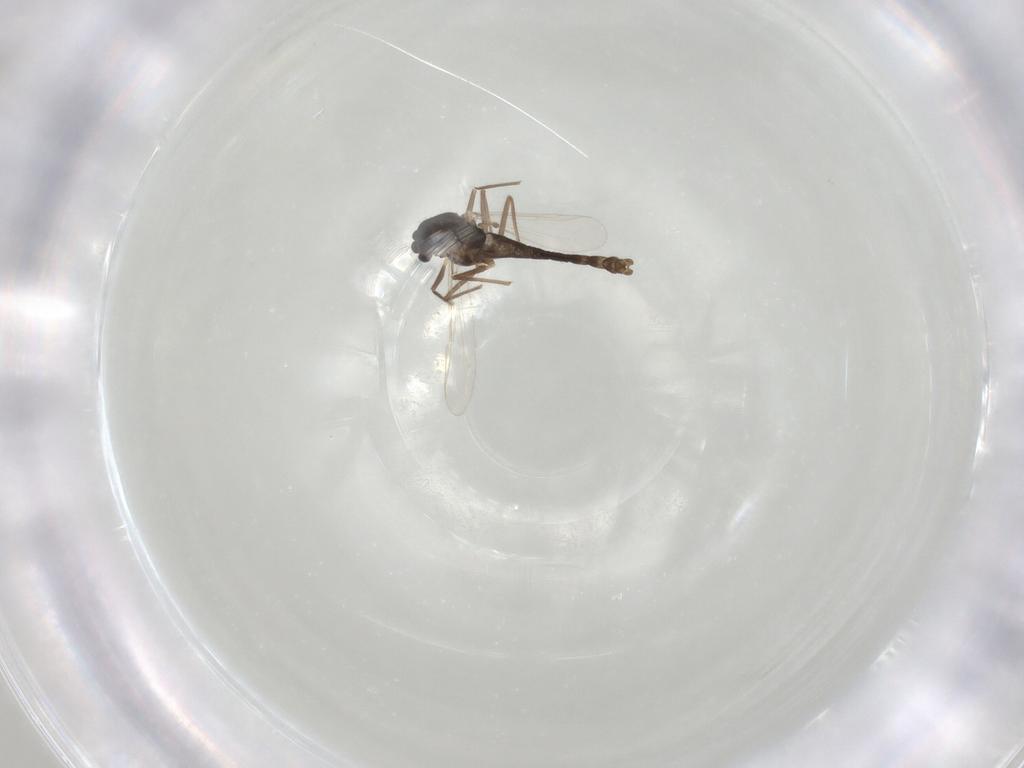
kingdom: Animalia
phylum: Arthropoda
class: Insecta
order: Diptera
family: Chironomidae
